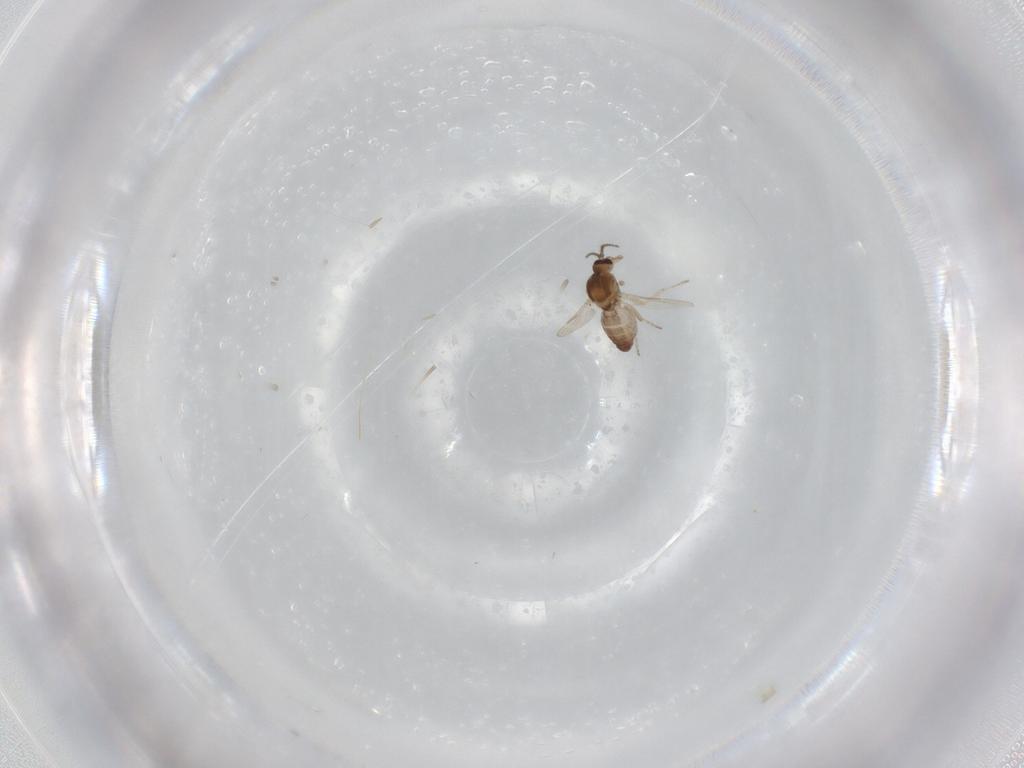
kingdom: Animalia
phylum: Arthropoda
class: Insecta
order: Diptera
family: Ceratopogonidae
